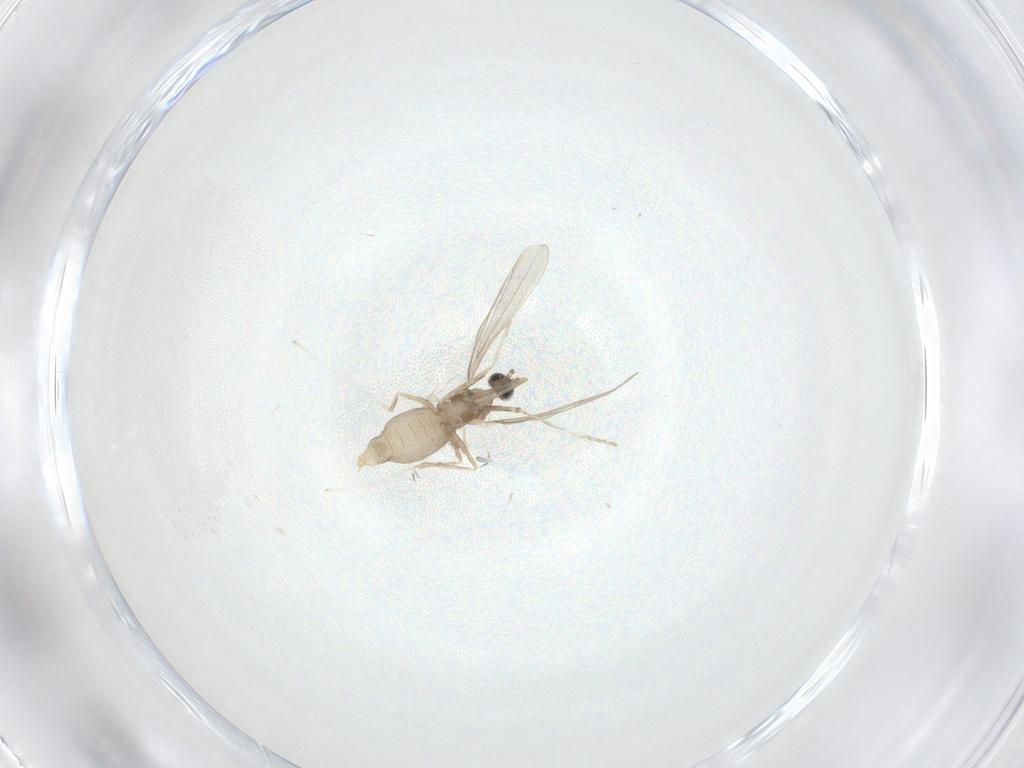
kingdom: Animalia
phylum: Arthropoda
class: Insecta
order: Diptera
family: Cecidomyiidae
